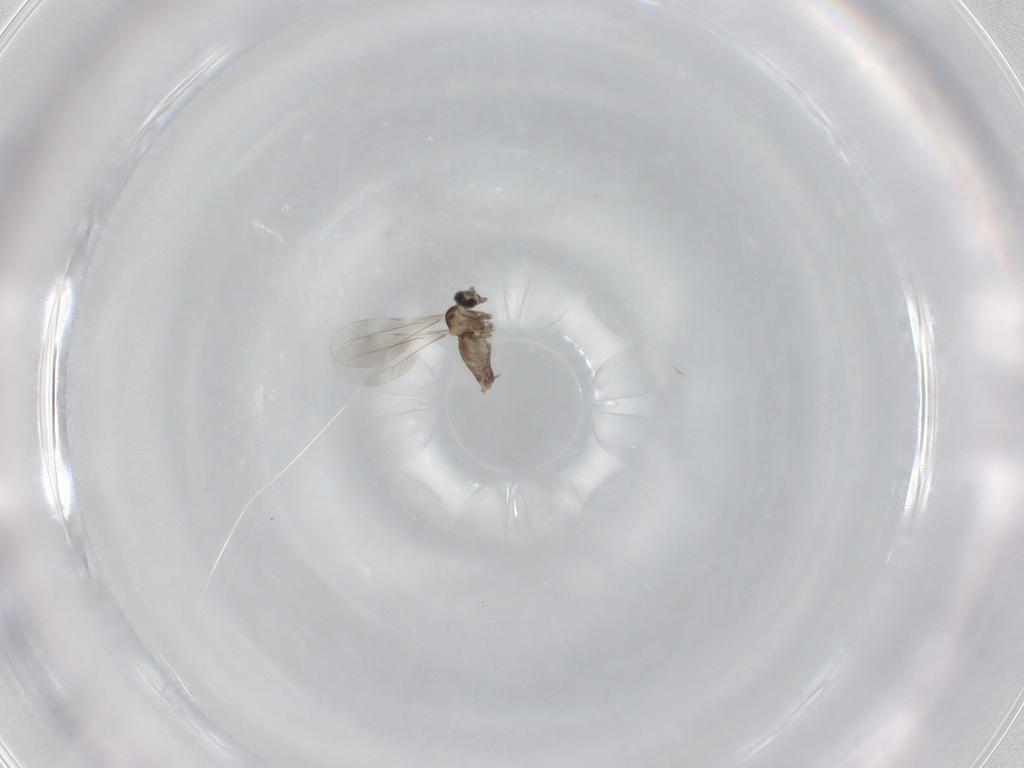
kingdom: Animalia
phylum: Arthropoda
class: Insecta
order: Diptera
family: Cecidomyiidae
